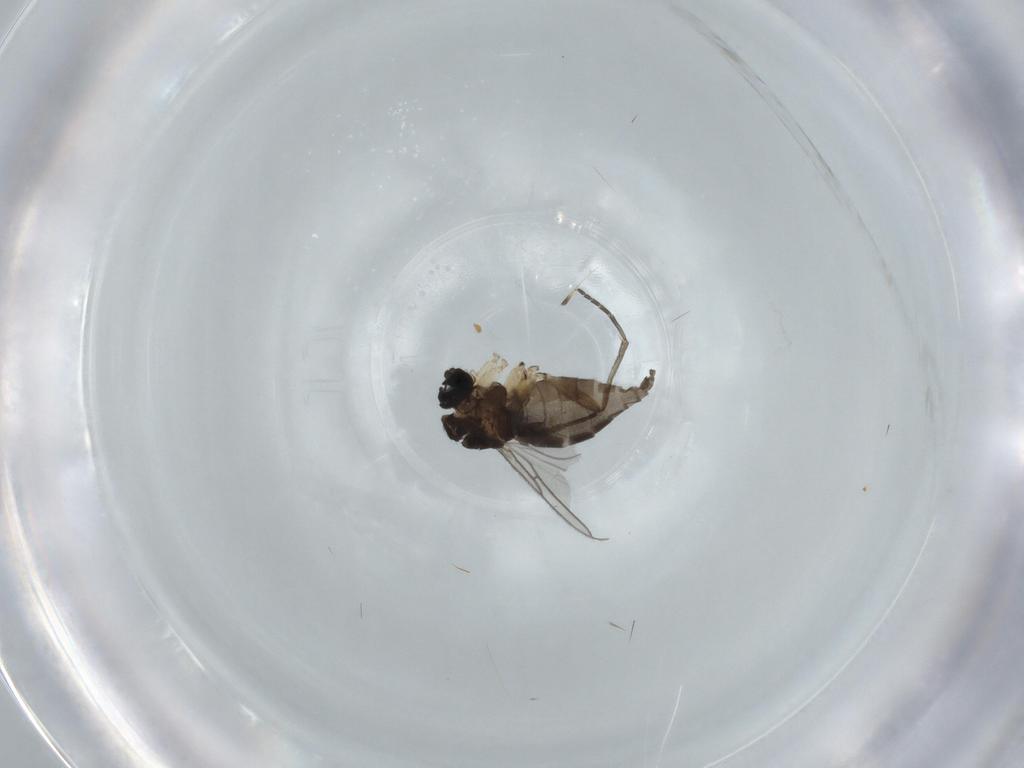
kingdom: Animalia
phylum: Arthropoda
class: Insecta
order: Diptera
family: Sciaridae
